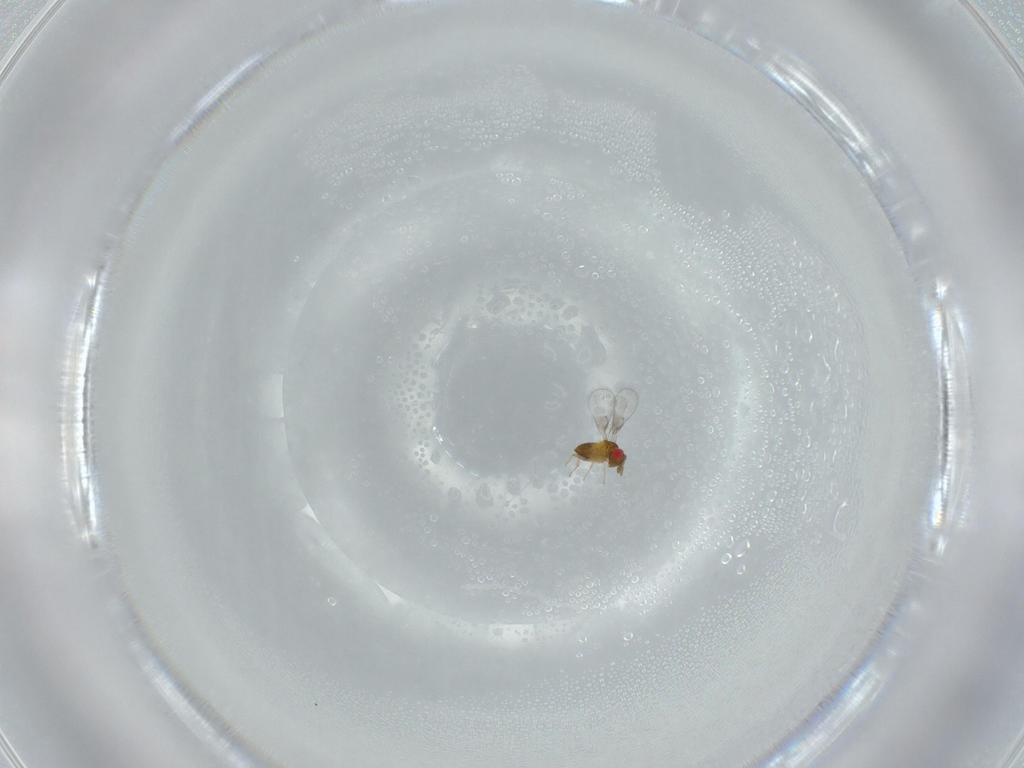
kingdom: Animalia
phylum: Arthropoda
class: Insecta
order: Hymenoptera
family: Trichogrammatidae
